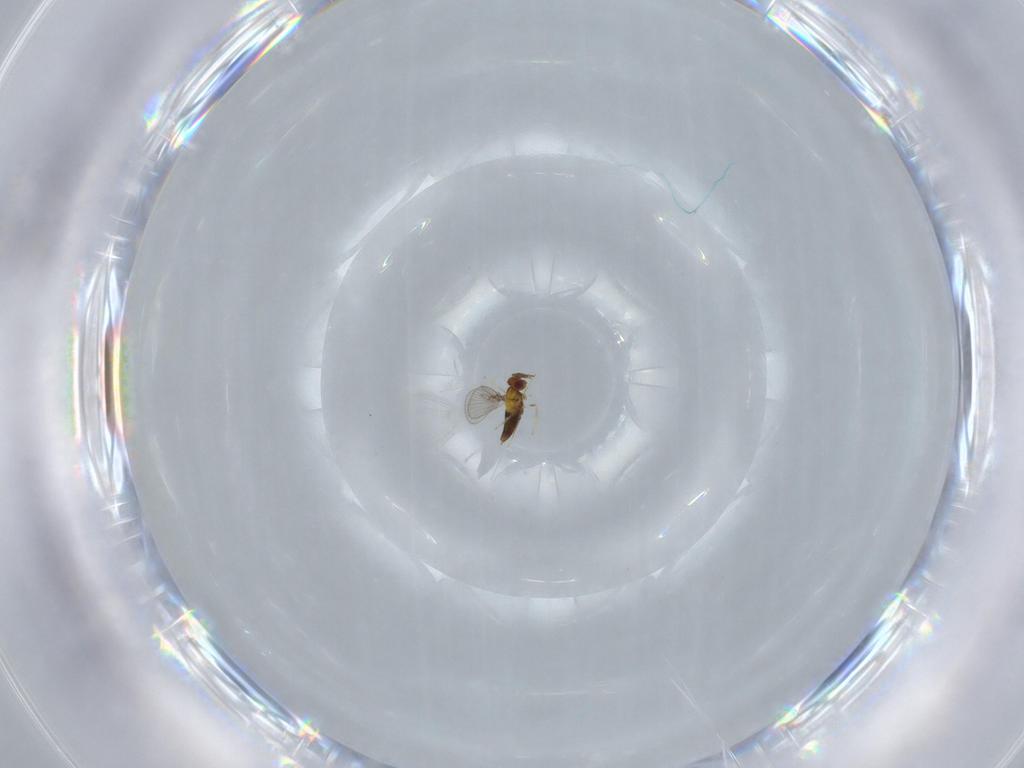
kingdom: Animalia
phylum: Arthropoda
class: Insecta
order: Hymenoptera
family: Trichogrammatidae
